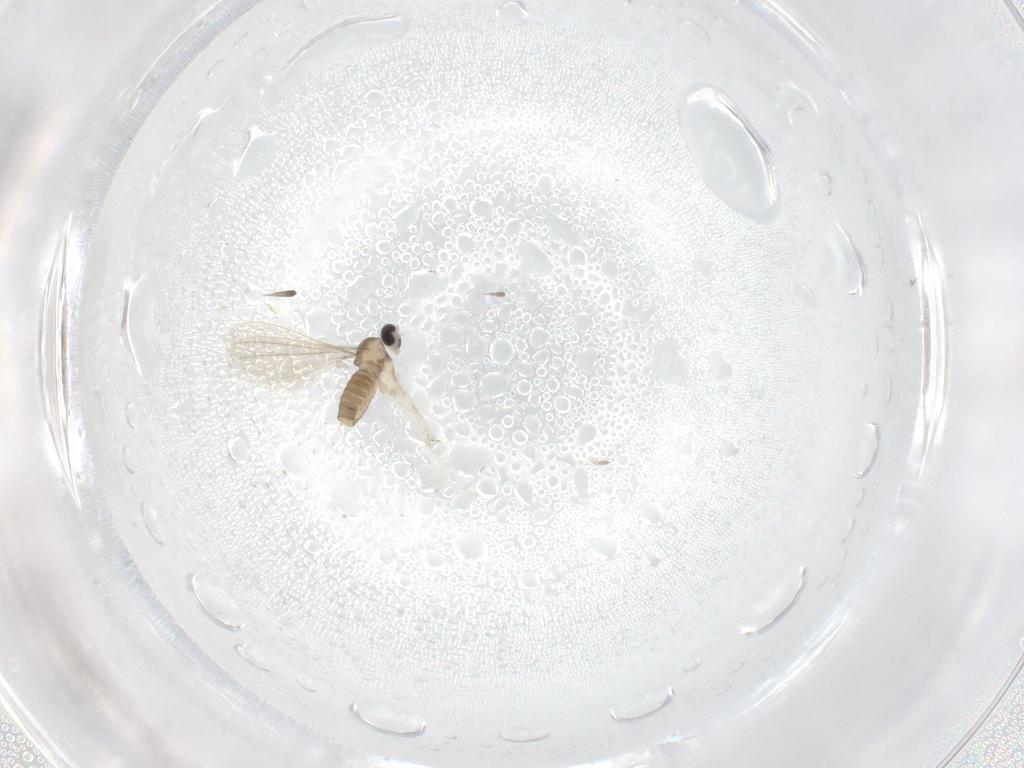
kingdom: Animalia
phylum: Arthropoda
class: Insecta
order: Diptera
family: Cecidomyiidae
